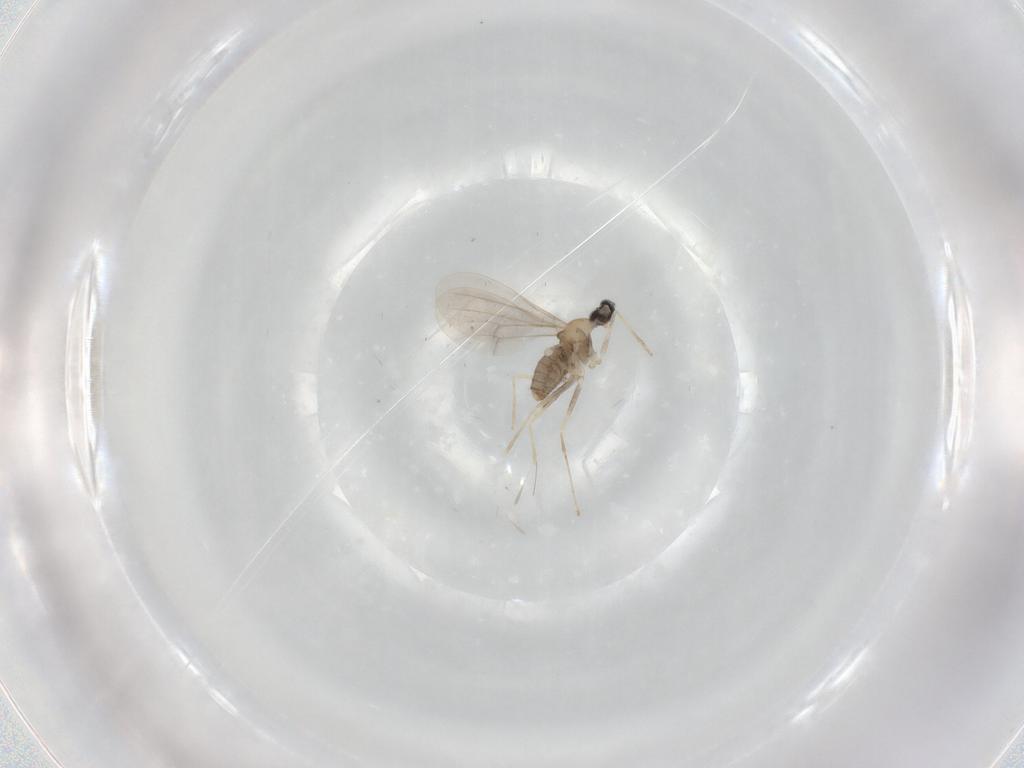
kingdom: Animalia
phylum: Arthropoda
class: Insecta
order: Diptera
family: Cecidomyiidae
